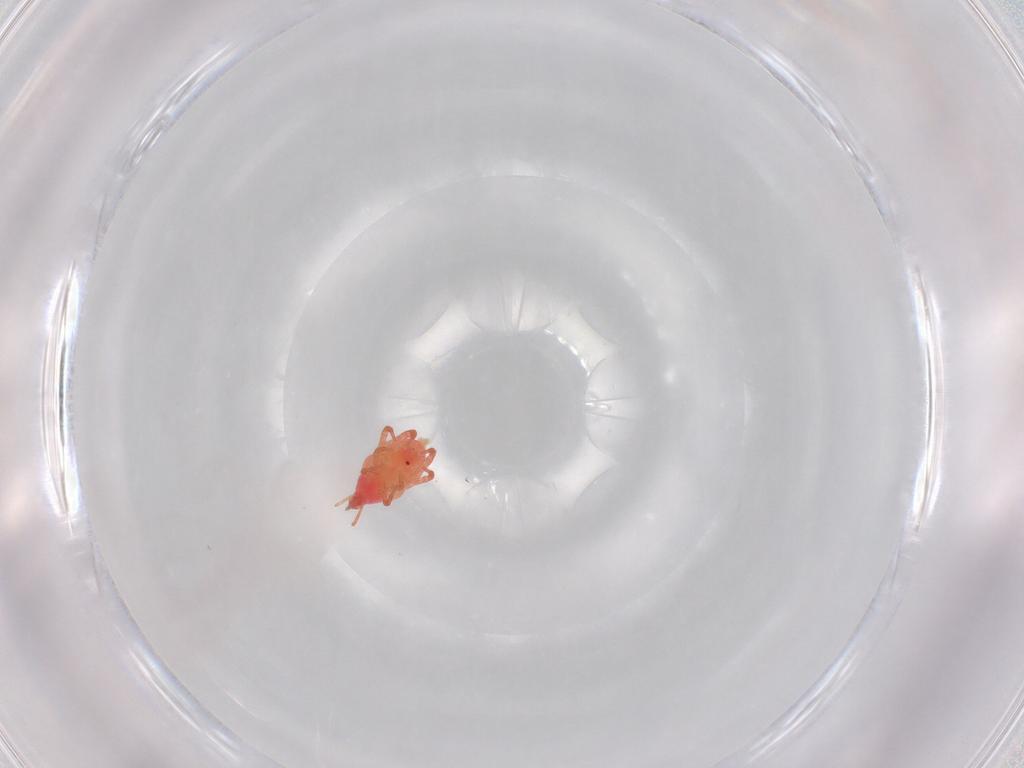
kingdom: Animalia
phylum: Arthropoda
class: Arachnida
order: Trombidiformes
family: Bdellidae
